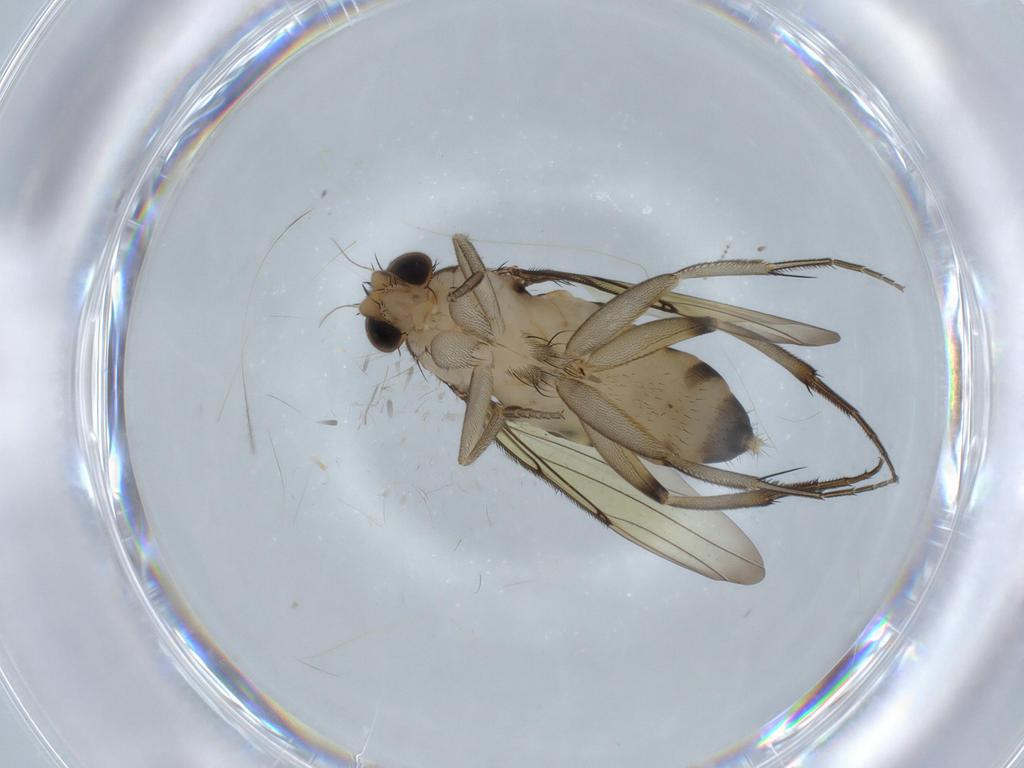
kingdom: Animalia
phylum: Arthropoda
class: Insecta
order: Diptera
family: Phoridae
